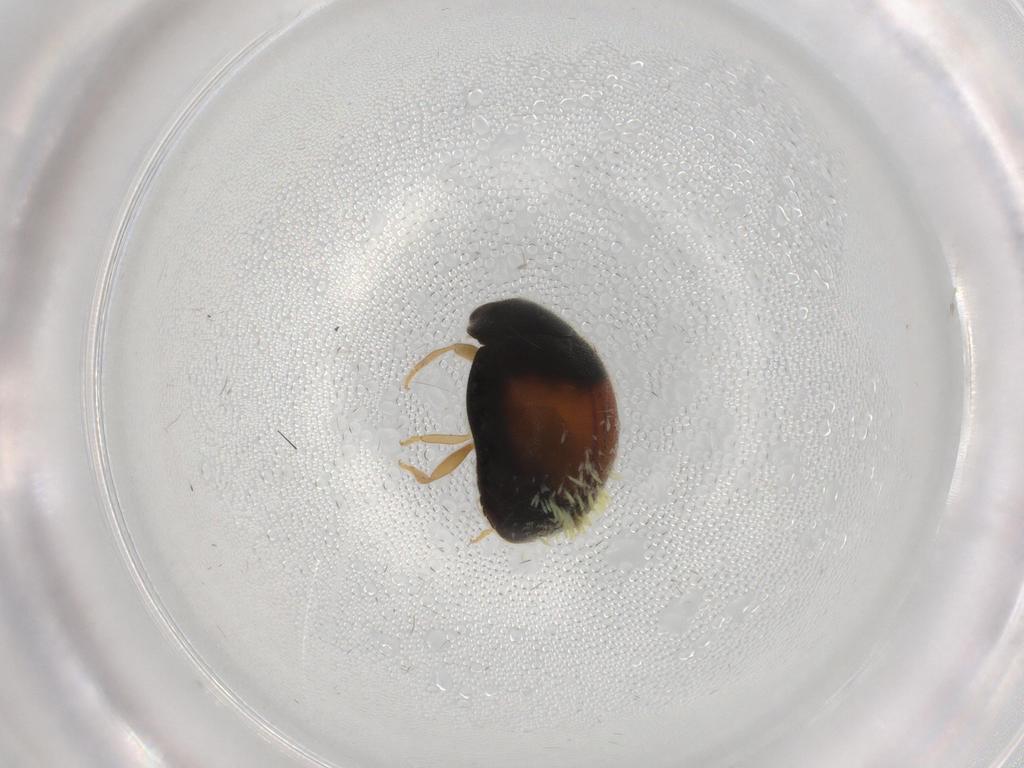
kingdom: Animalia
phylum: Arthropoda
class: Insecta
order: Coleoptera
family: Coccinellidae
